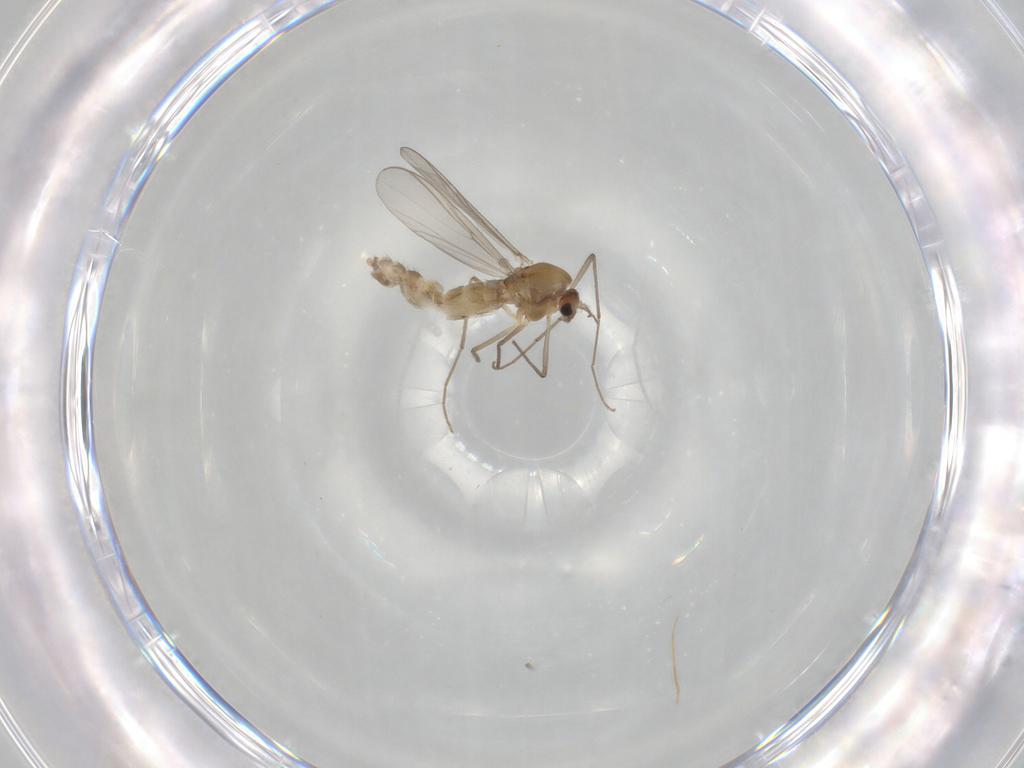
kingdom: Animalia
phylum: Arthropoda
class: Insecta
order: Diptera
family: Chironomidae
